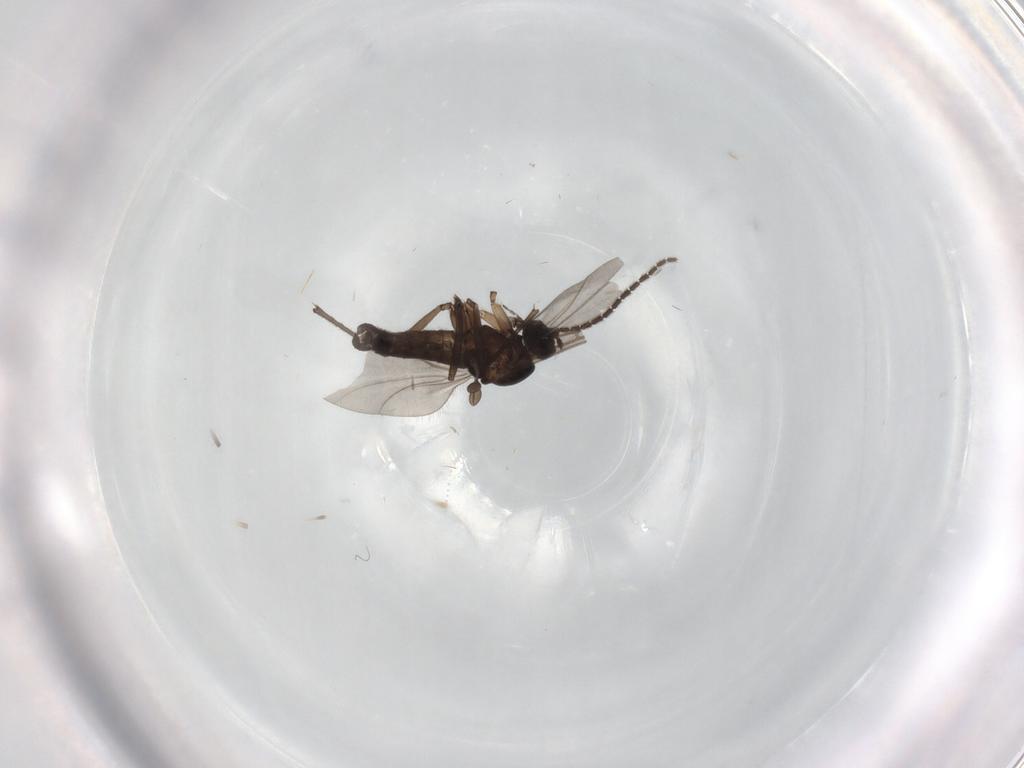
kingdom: Animalia
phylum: Arthropoda
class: Insecta
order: Diptera
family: Sciaridae
